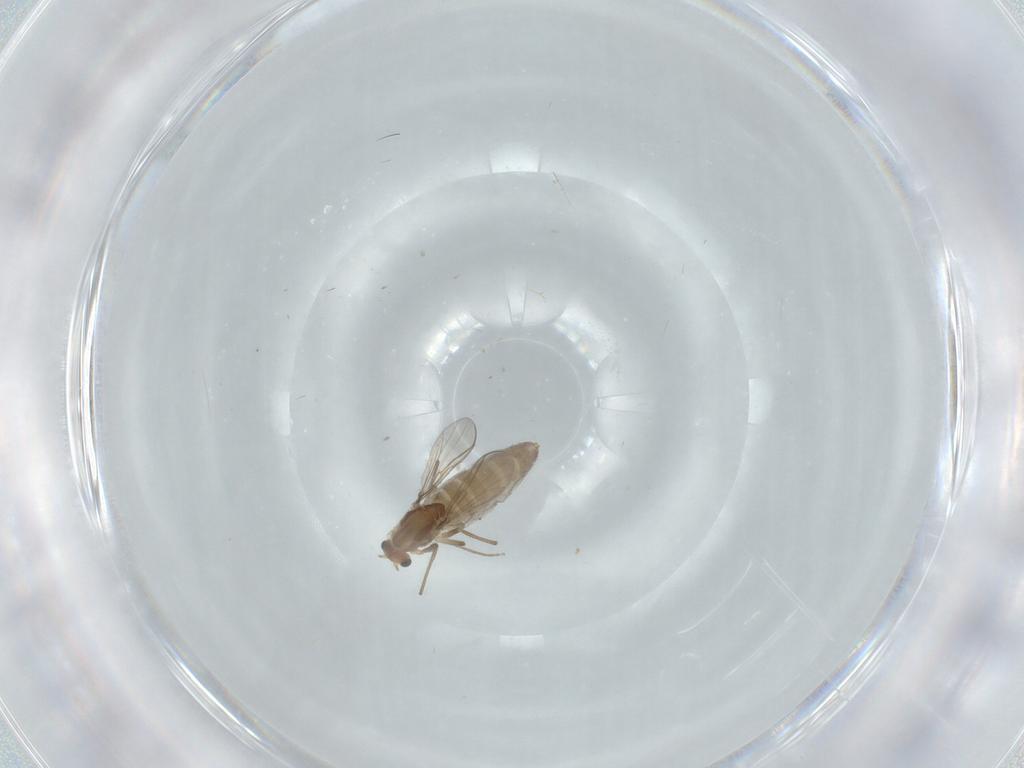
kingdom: Animalia
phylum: Arthropoda
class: Insecta
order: Diptera
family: Chironomidae
